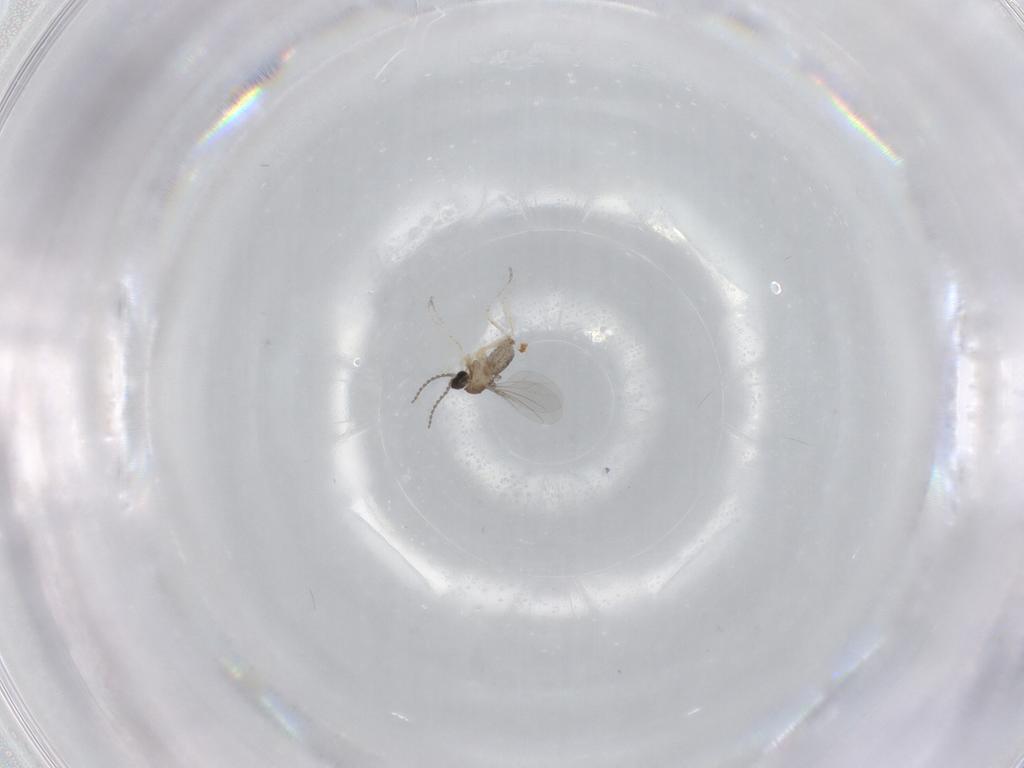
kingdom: Animalia
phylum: Arthropoda
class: Insecta
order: Diptera
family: Cecidomyiidae
